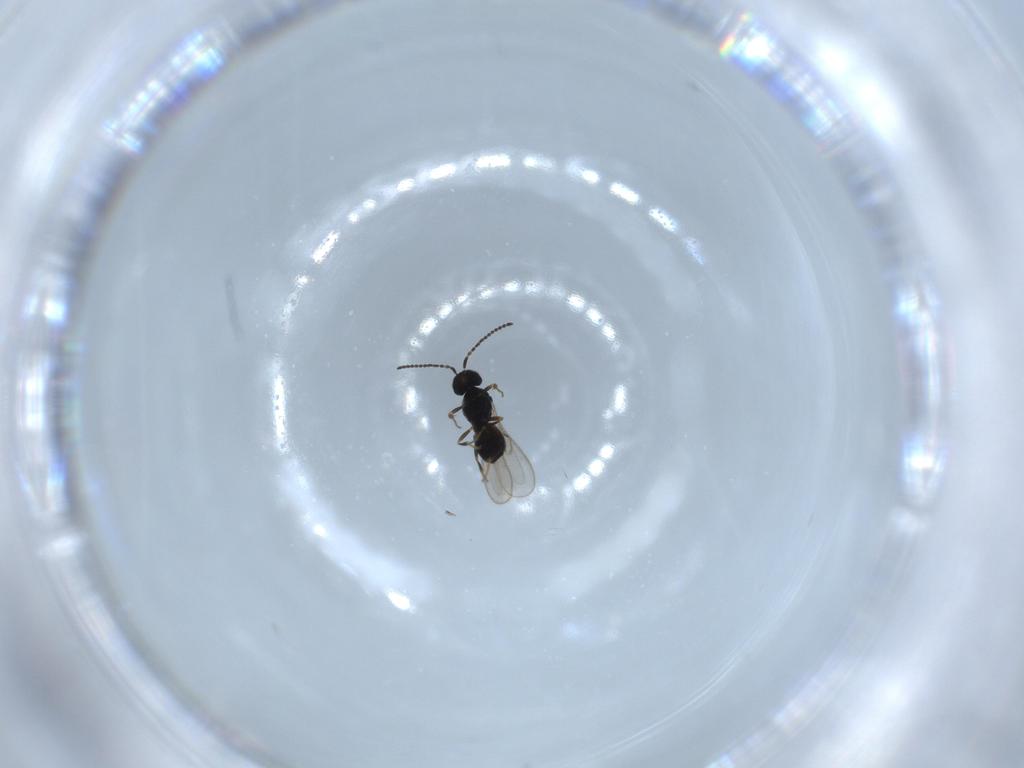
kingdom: Animalia
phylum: Arthropoda
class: Insecta
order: Hymenoptera
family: Scelionidae
